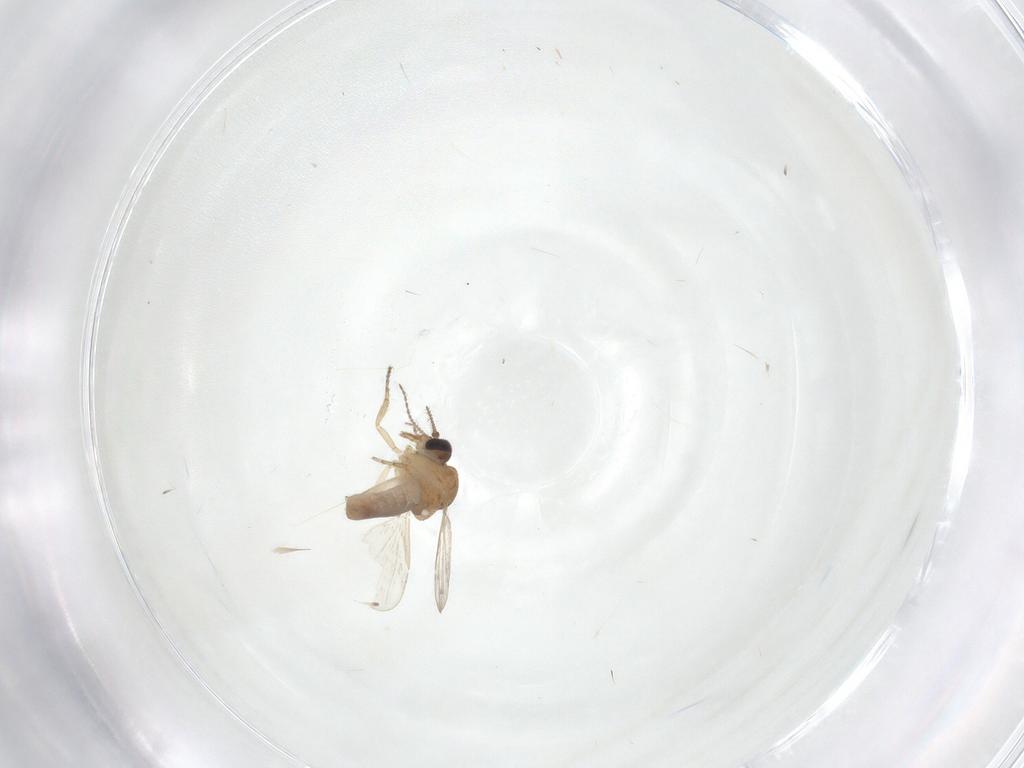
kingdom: Animalia
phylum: Arthropoda
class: Insecta
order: Diptera
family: Ceratopogonidae
